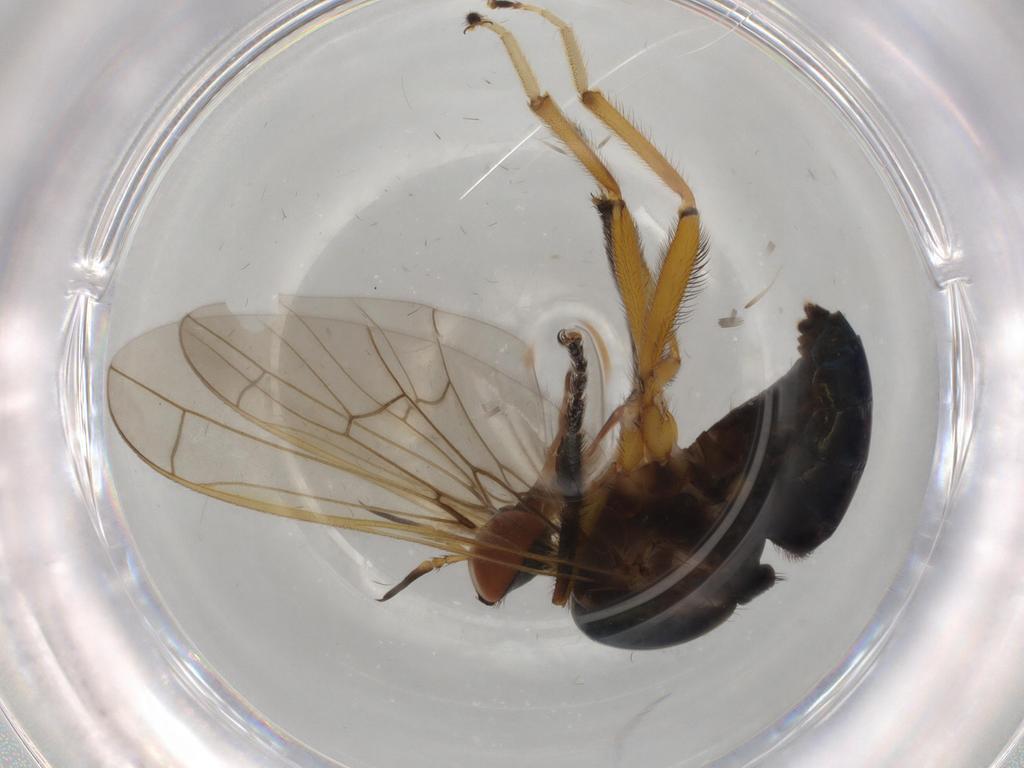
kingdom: Animalia
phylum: Arthropoda
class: Insecta
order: Diptera
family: Empididae
